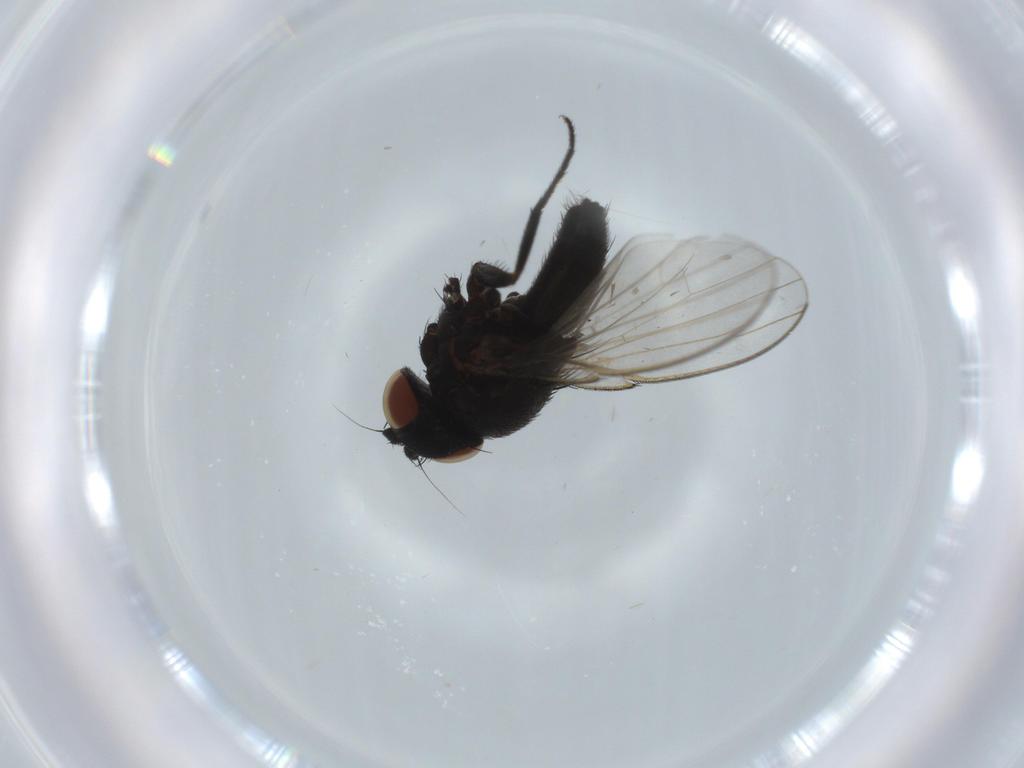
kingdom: Animalia
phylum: Arthropoda
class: Insecta
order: Diptera
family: Milichiidae
